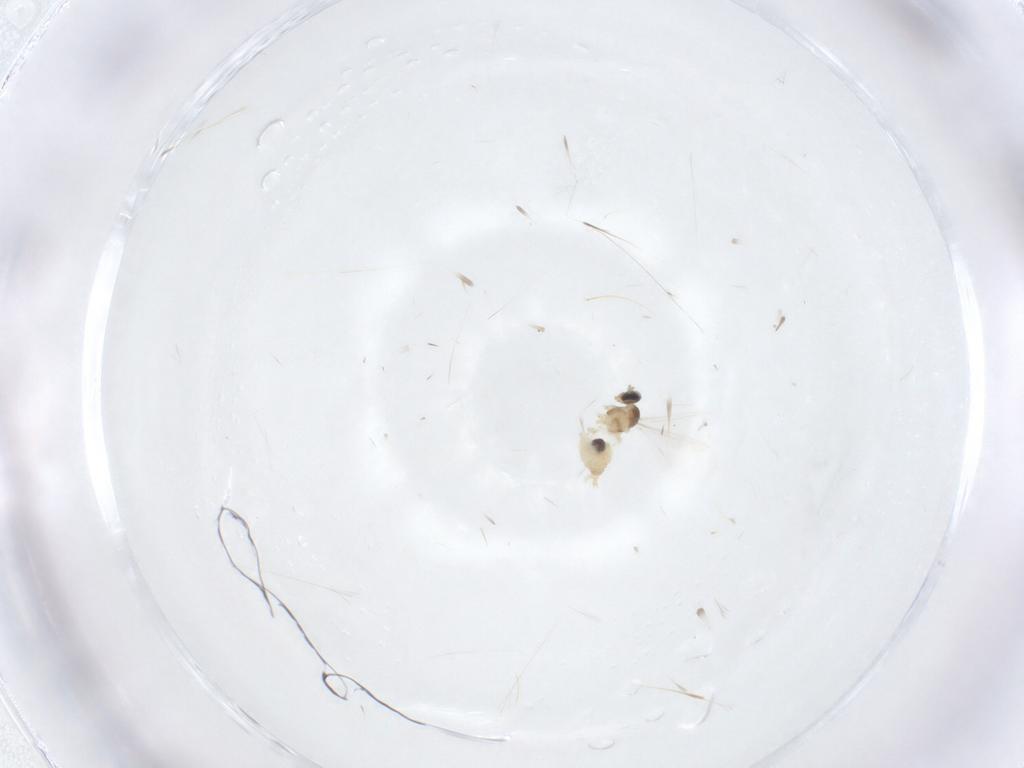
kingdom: Animalia
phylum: Arthropoda
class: Insecta
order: Diptera
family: Cecidomyiidae
